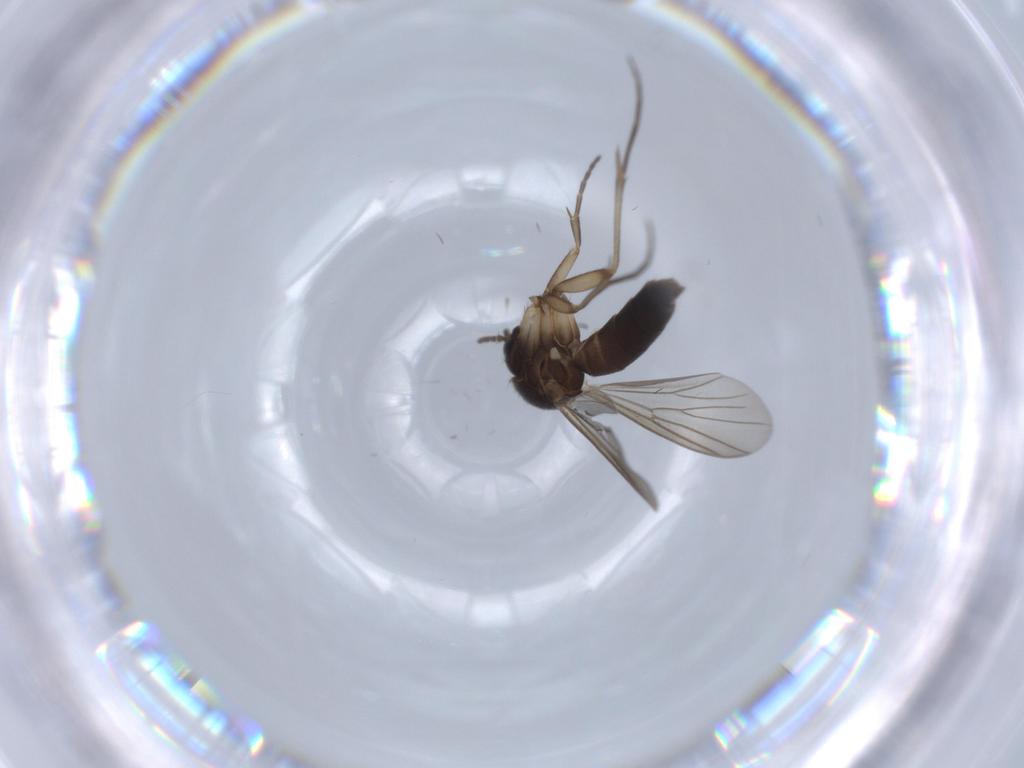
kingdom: Animalia
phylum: Arthropoda
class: Insecta
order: Diptera
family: Mycetophilidae
